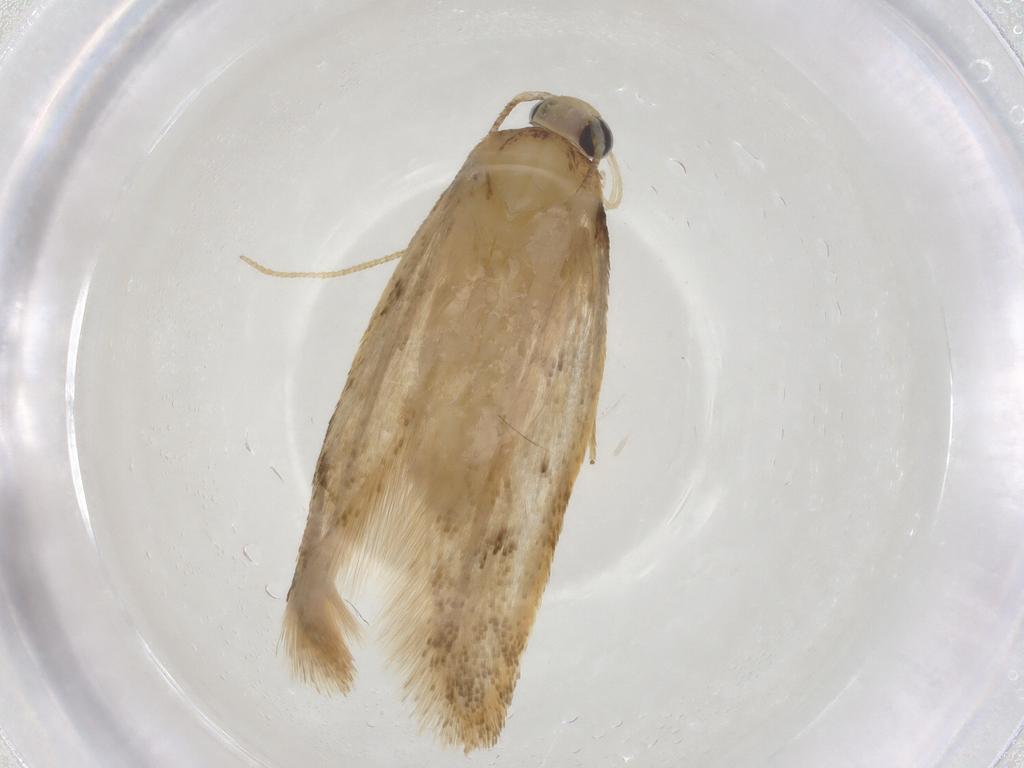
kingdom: Animalia
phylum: Arthropoda
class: Insecta
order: Lepidoptera
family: Oecophoridae
